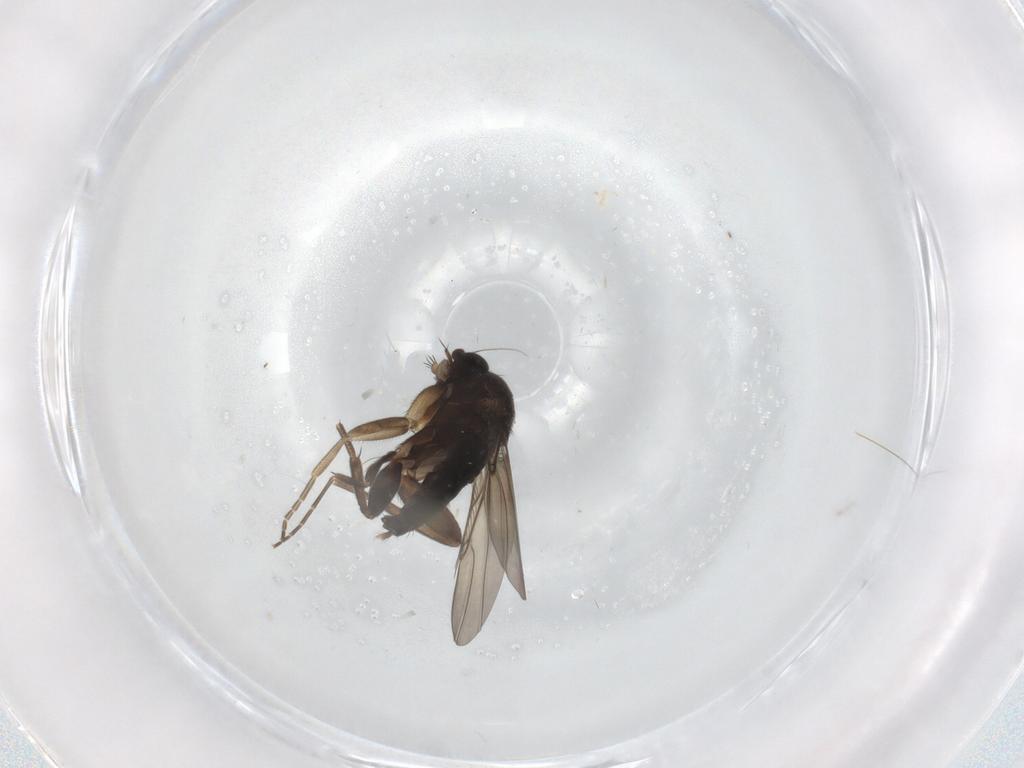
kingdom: Animalia
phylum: Arthropoda
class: Insecta
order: Diptera
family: Phoridae
